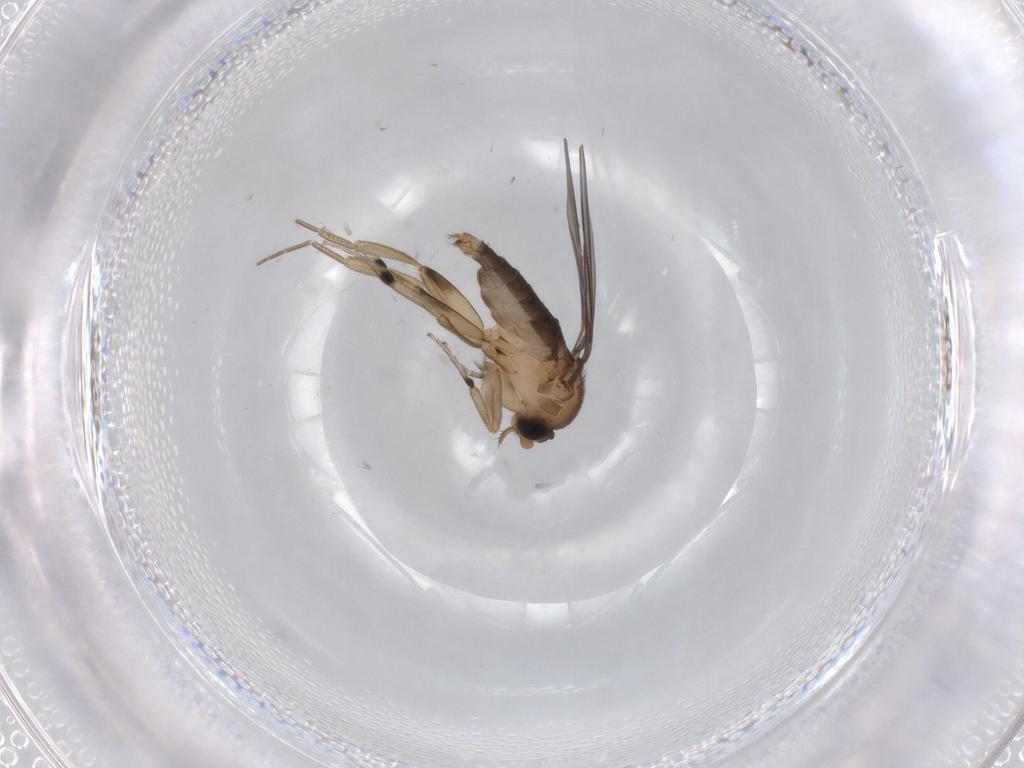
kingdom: Animalia
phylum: Arthropoda
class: Insecta
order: Diptera
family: Phoridae
